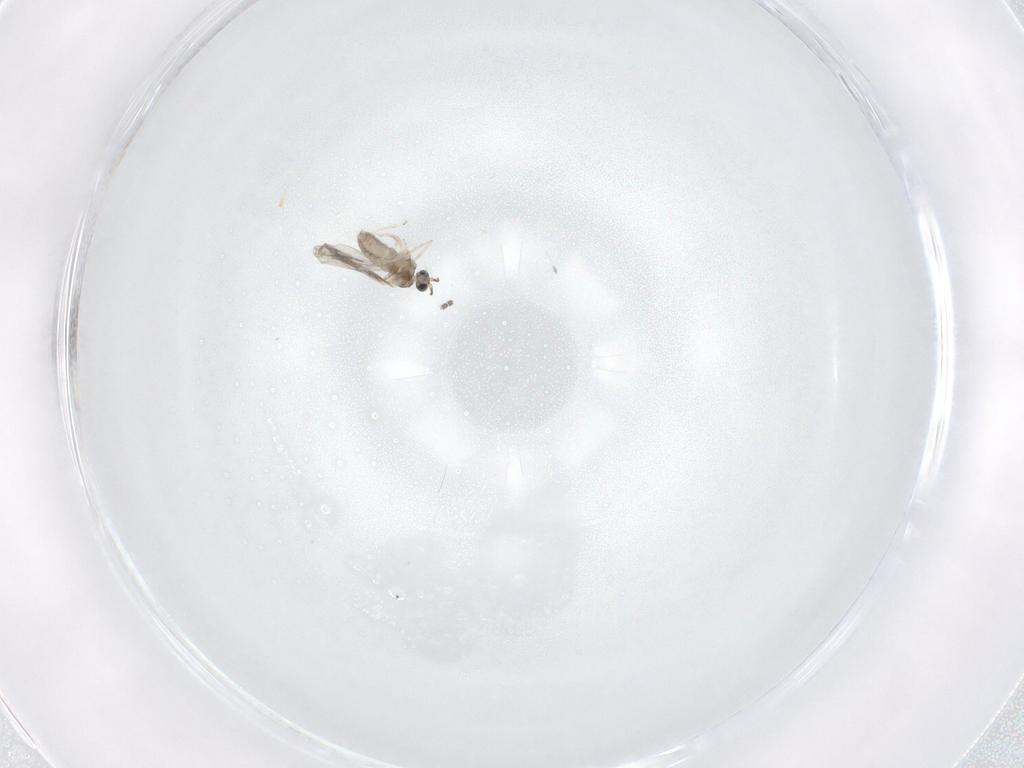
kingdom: Animalia
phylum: Arthropoda
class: Insecta
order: Diptera
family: Chironomidae
